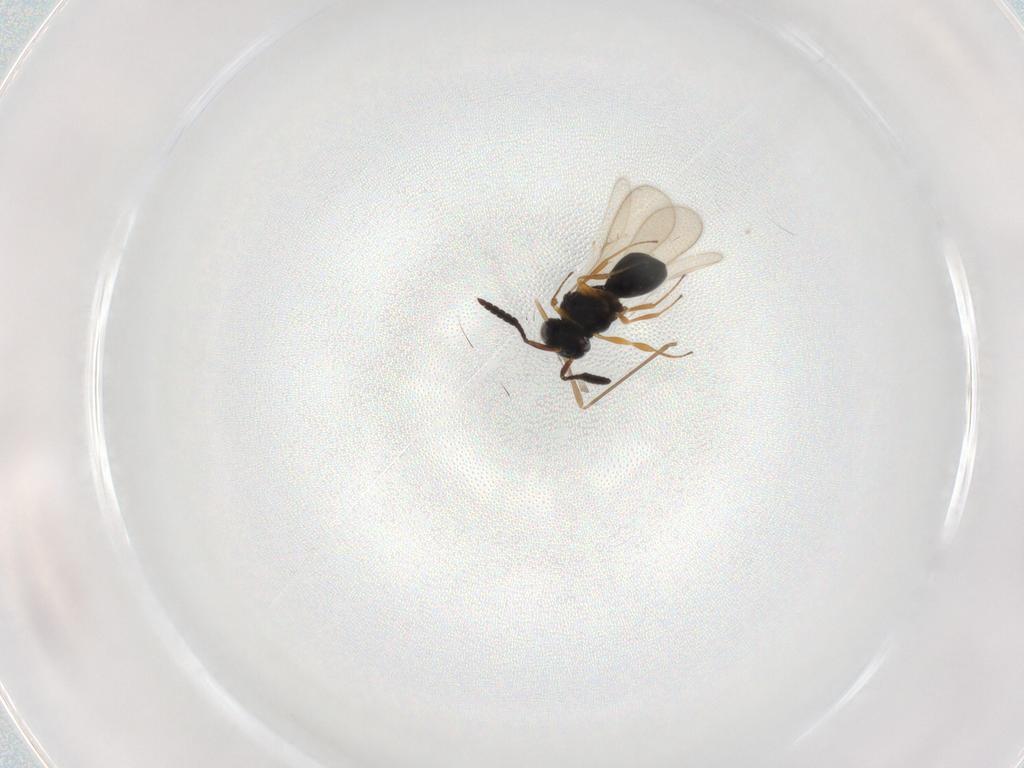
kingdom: Animalia
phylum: Arthropoda
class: Insecta
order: Hymenoptera
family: Scelionidae
